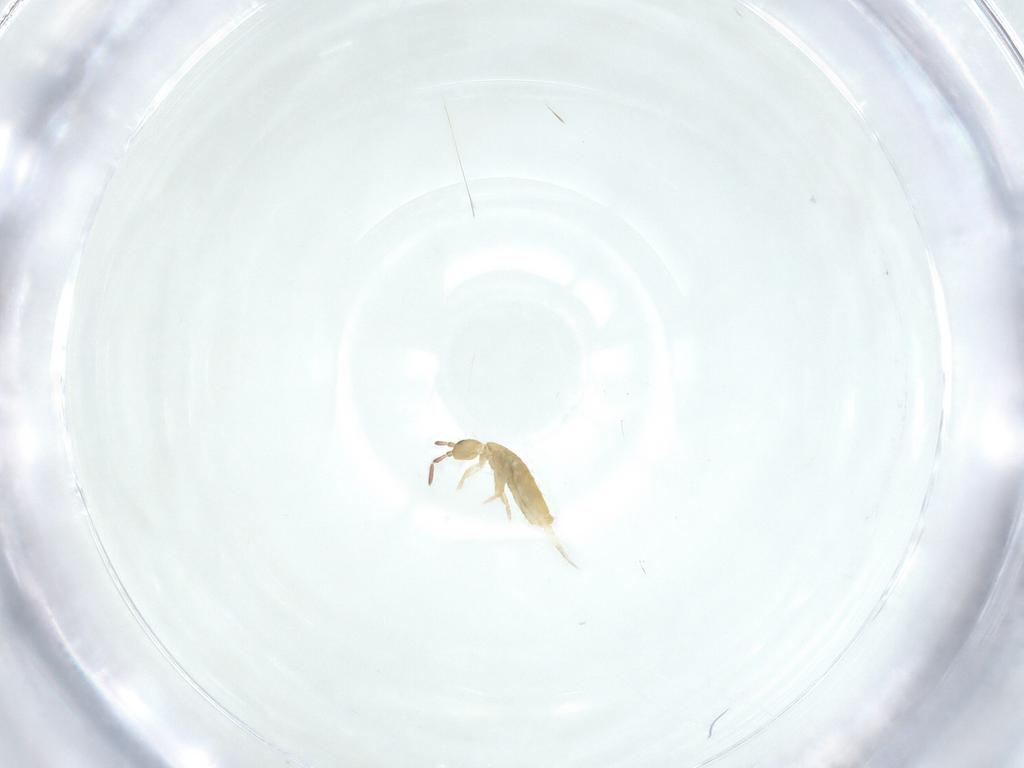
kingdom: Animalia
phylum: Arthropoda
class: Collembola
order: Entomobryomorpha
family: Entomobryidae
